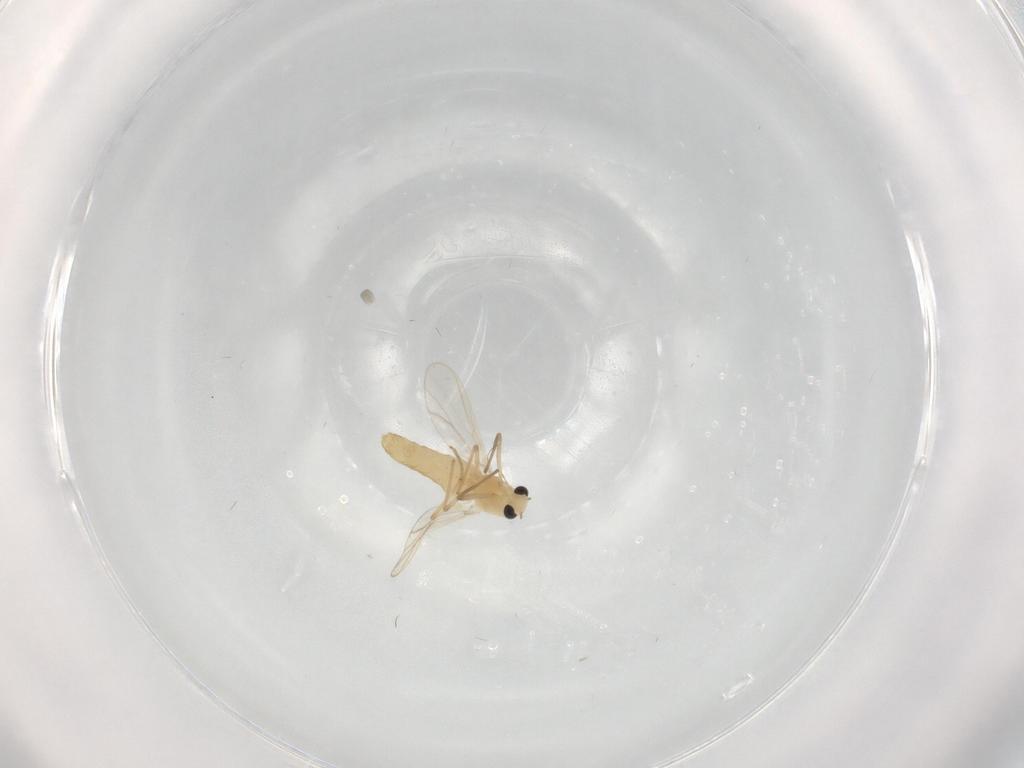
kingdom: Animalia
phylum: Arthropoda
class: Insecta
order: Diptera
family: Chironomidae
